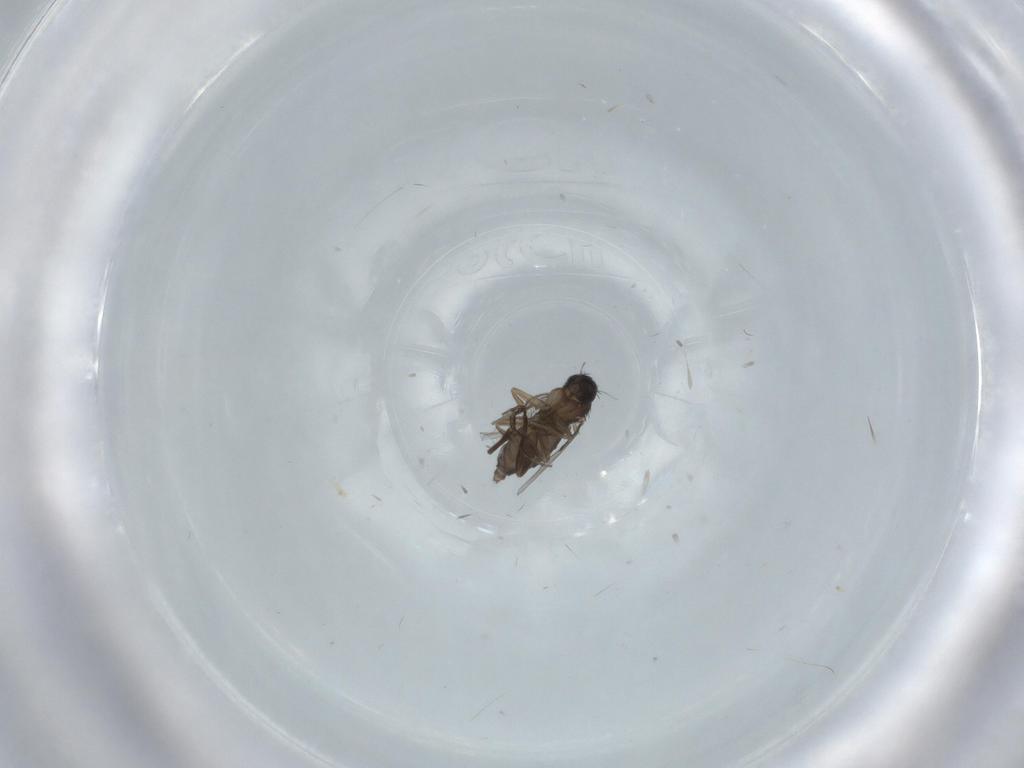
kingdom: Animalia
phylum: Arthropoda
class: Insecta
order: Diptera
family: Phoridae
